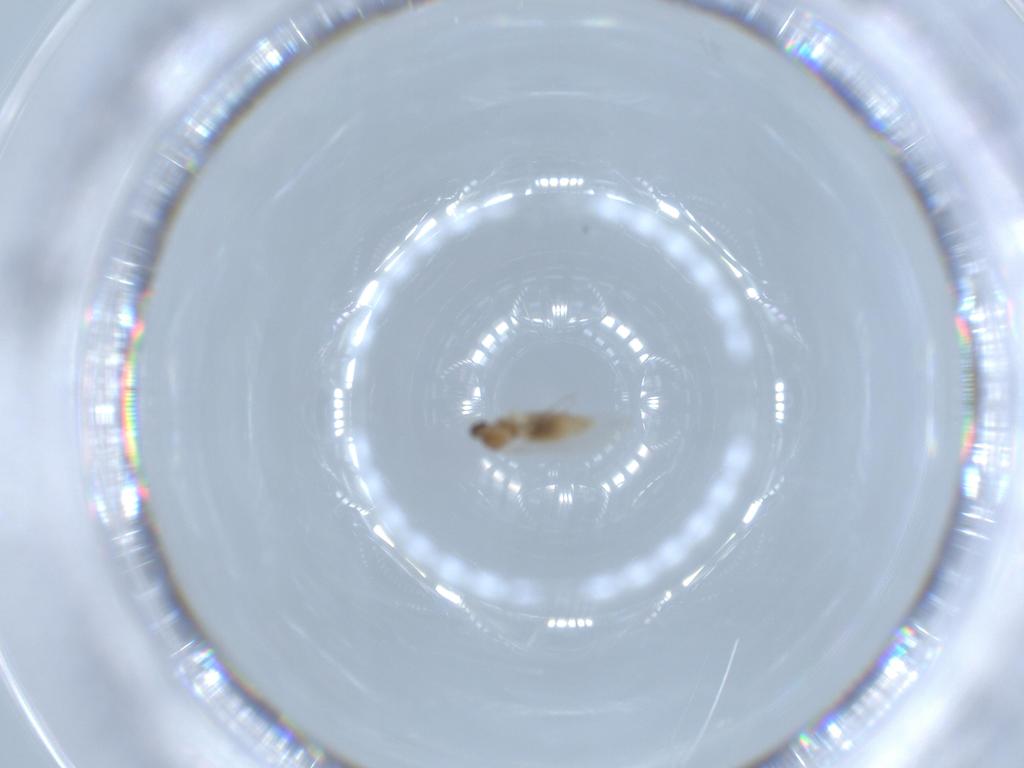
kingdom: Animalia
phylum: Arthropoda
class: Insecta
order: Diptera
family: Cecidomyiidae
